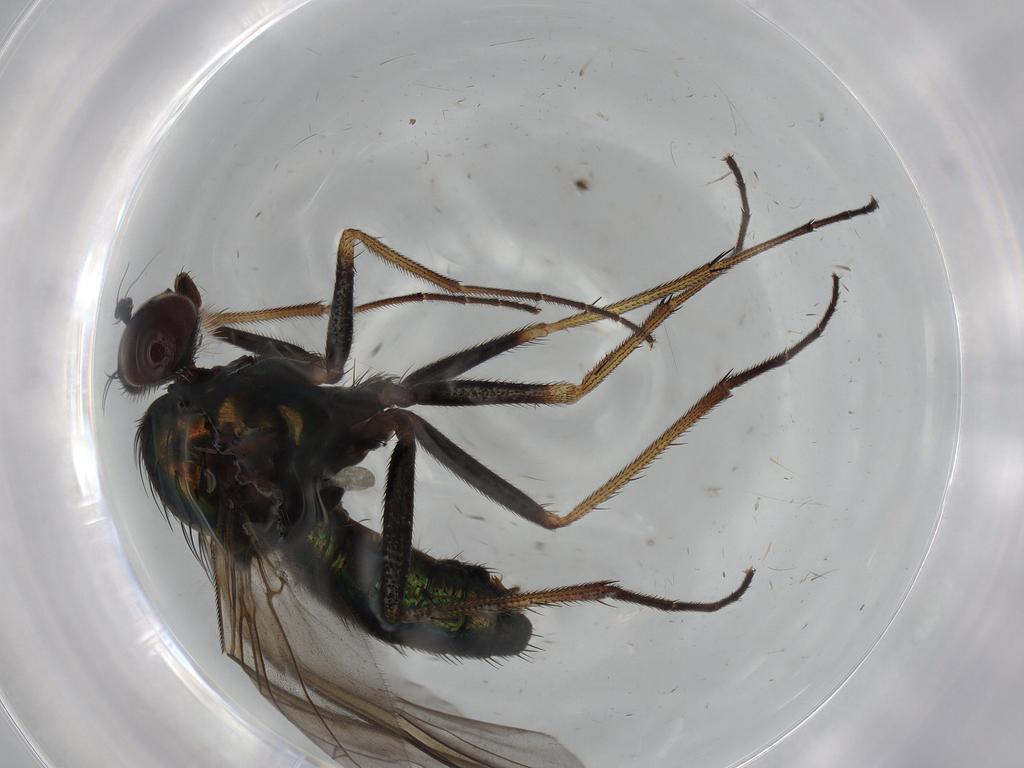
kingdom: Animalia
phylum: Arthropoda
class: Insecta
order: Diptera
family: Dolichopodidae
